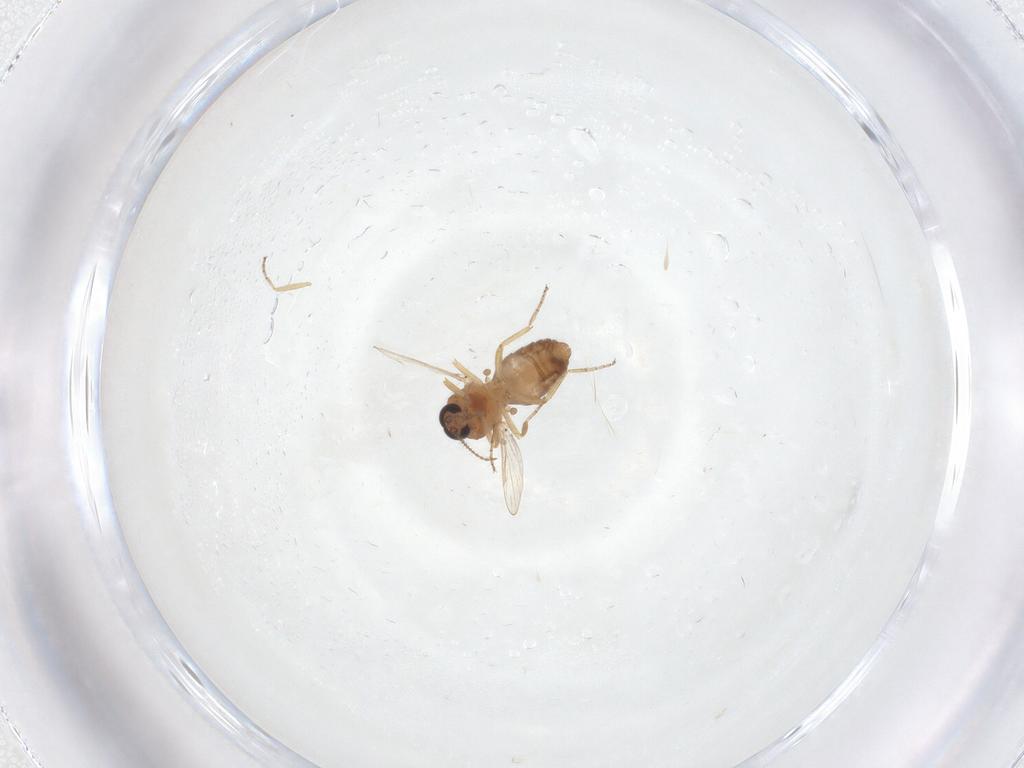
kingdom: Animalia
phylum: Arthropoda
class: Insecta
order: Diptera
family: Ceratopogonidae
